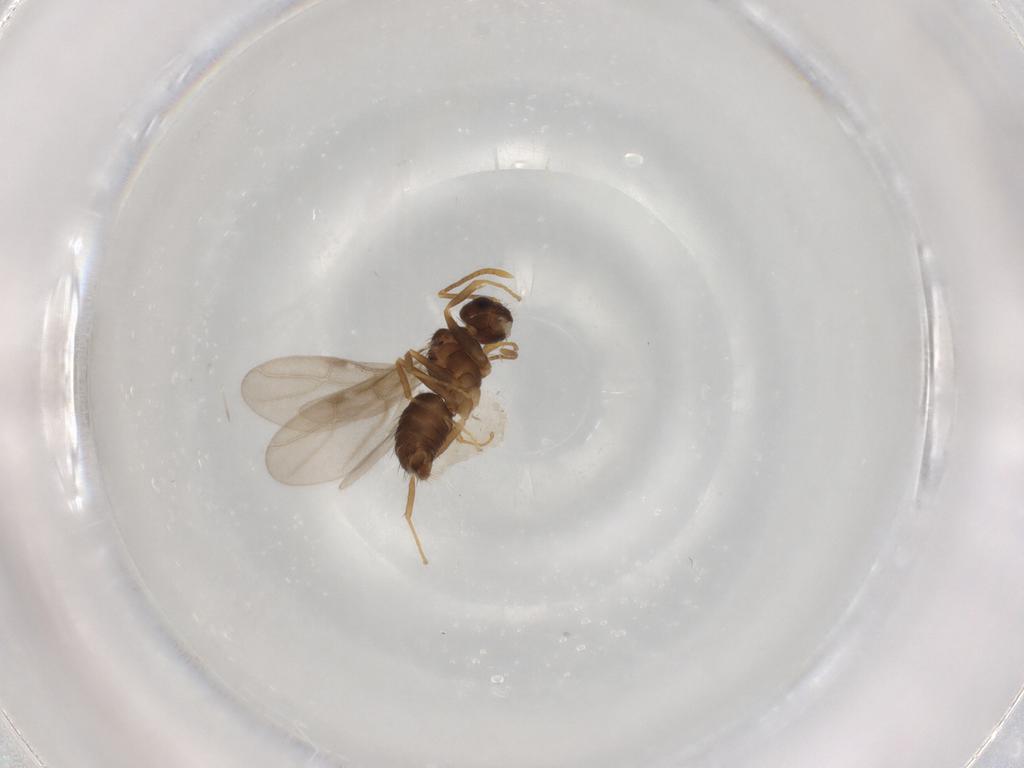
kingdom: Animalia
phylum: Arthropoda
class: Insecta
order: Hymenoptera
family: Formicidae
